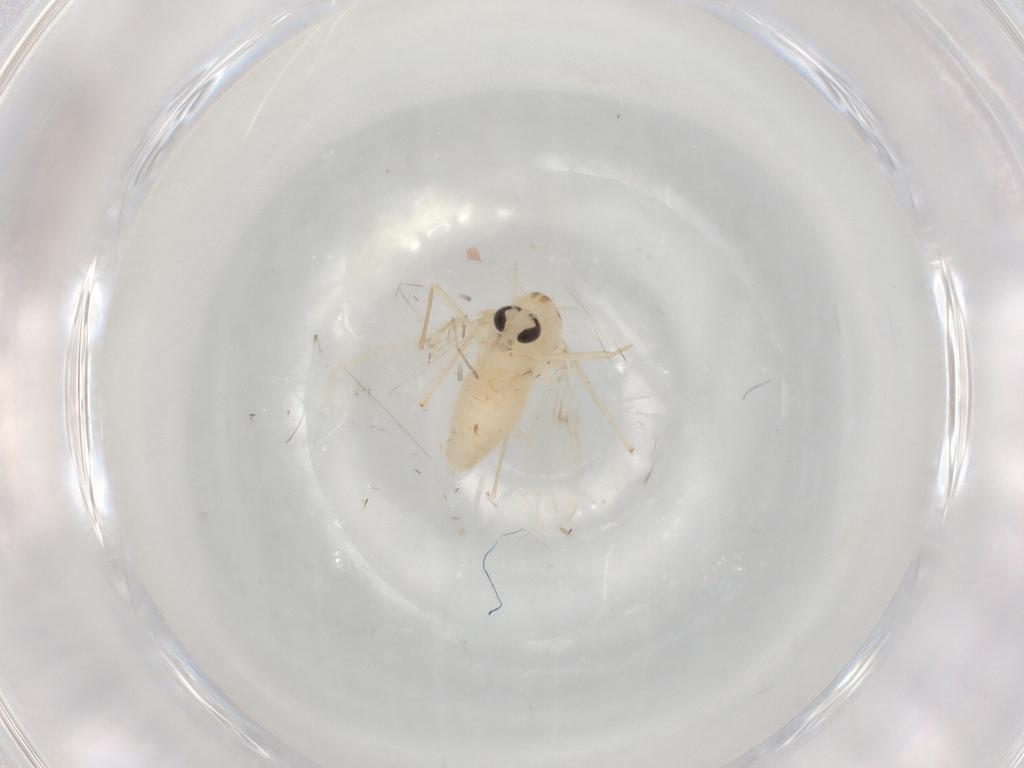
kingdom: Animalia
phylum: Arthropoda
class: Insecta
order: Diptera
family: Chironomidae
